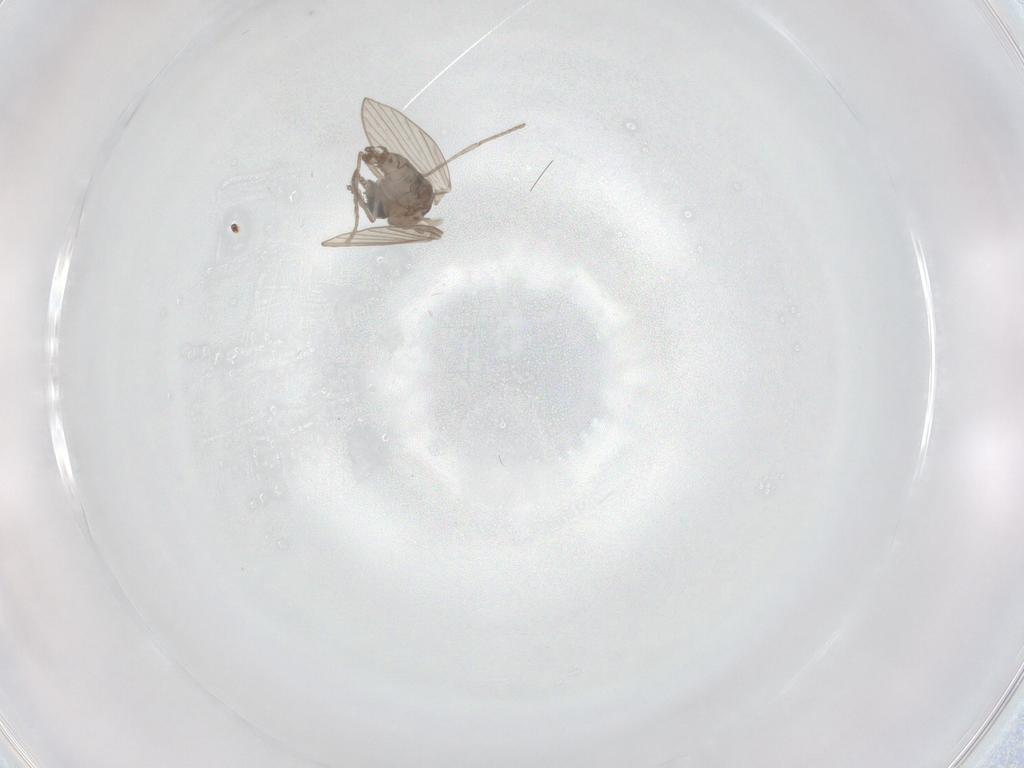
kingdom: Animalia
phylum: Arthropoda
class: Insecta
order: Diptera
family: Psychodidae
